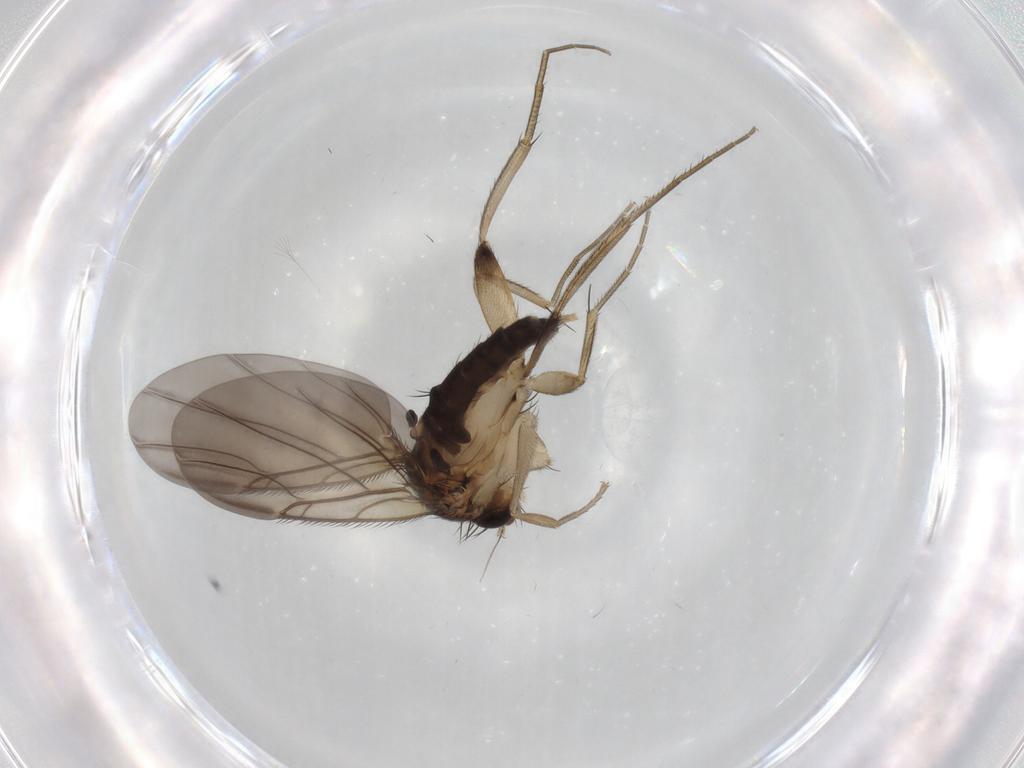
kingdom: Animalia
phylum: Arthropoda
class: Insecta
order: Diptera
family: Phoridae
